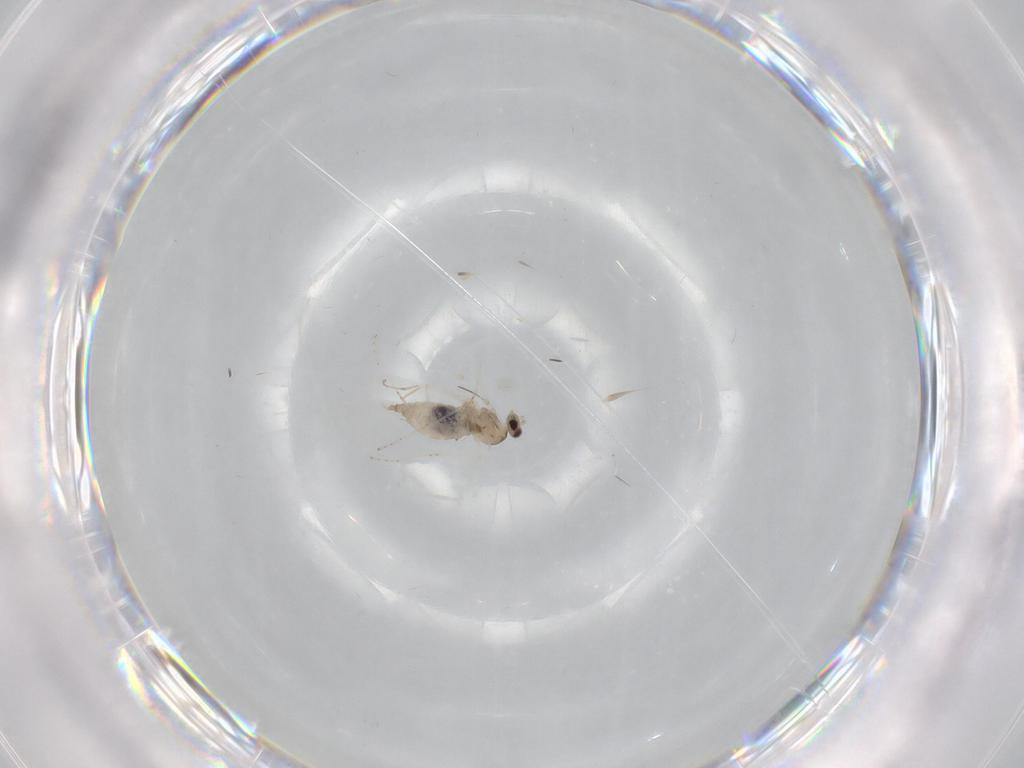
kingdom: Animalia
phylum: Arthropoda
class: Insecta
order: Diptera
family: Cecidomyiidae
